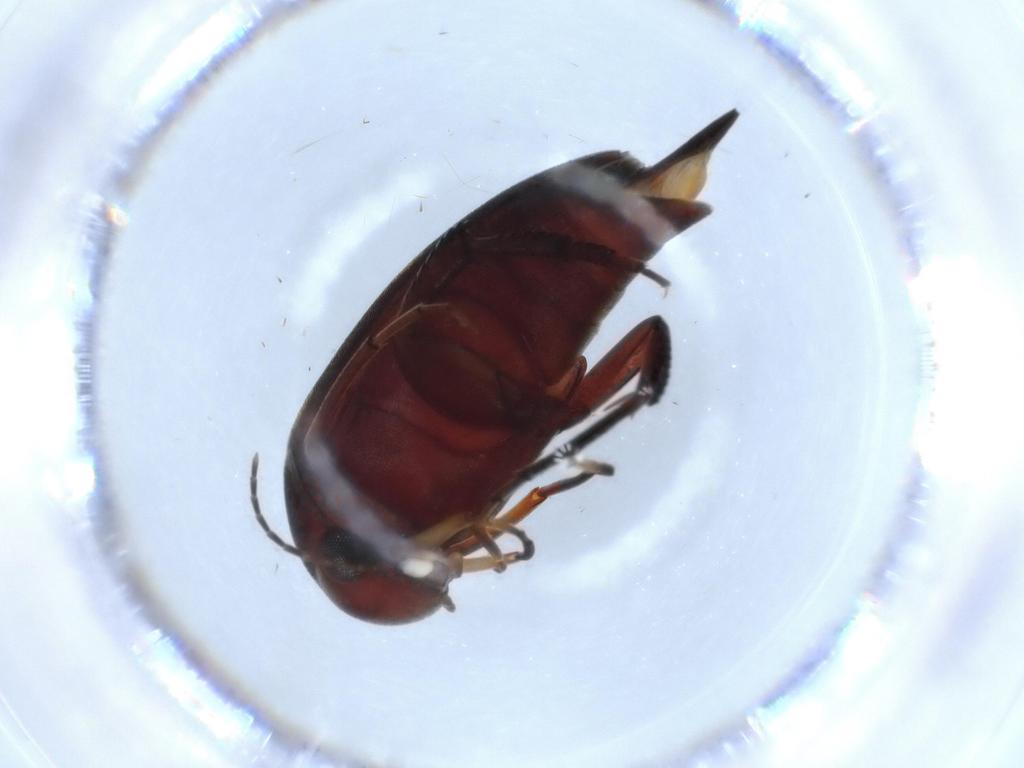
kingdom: Animalia
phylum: Arthropoda
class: Insecta
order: Coleoptera
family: Mordellidae
